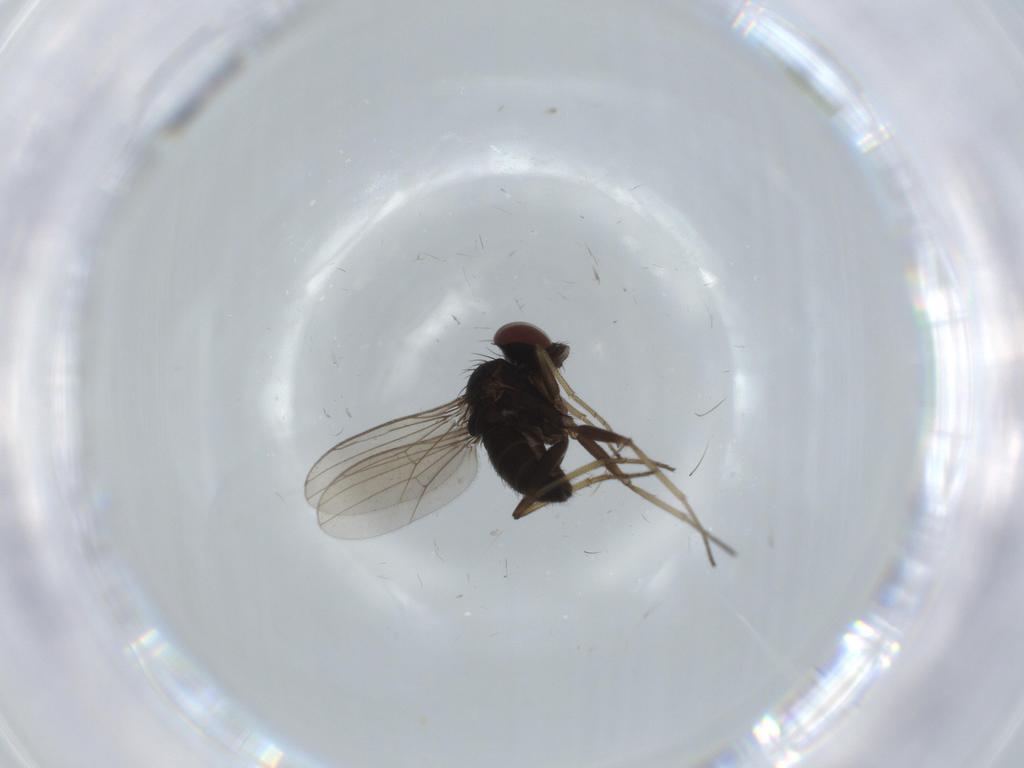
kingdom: Animalia
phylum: Arthropoda
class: Insecta
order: Diptera
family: Dolichopodidae
